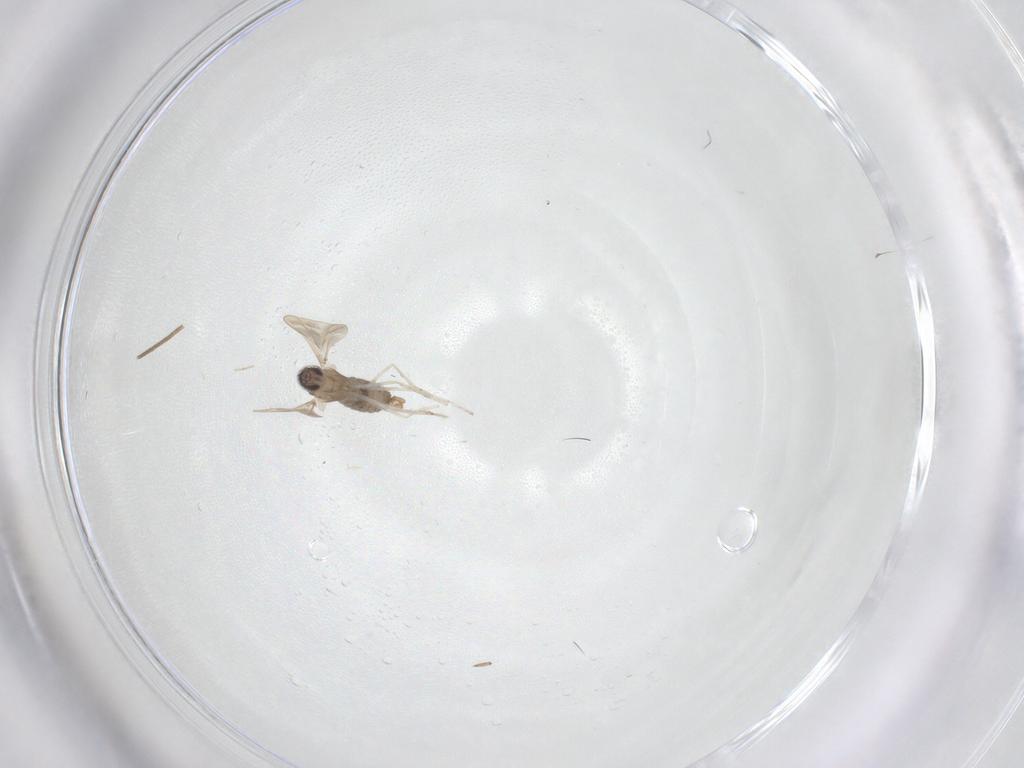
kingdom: Animalia
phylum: Arthropoda
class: Insecta
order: Diptera
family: Cecidomyiidae
